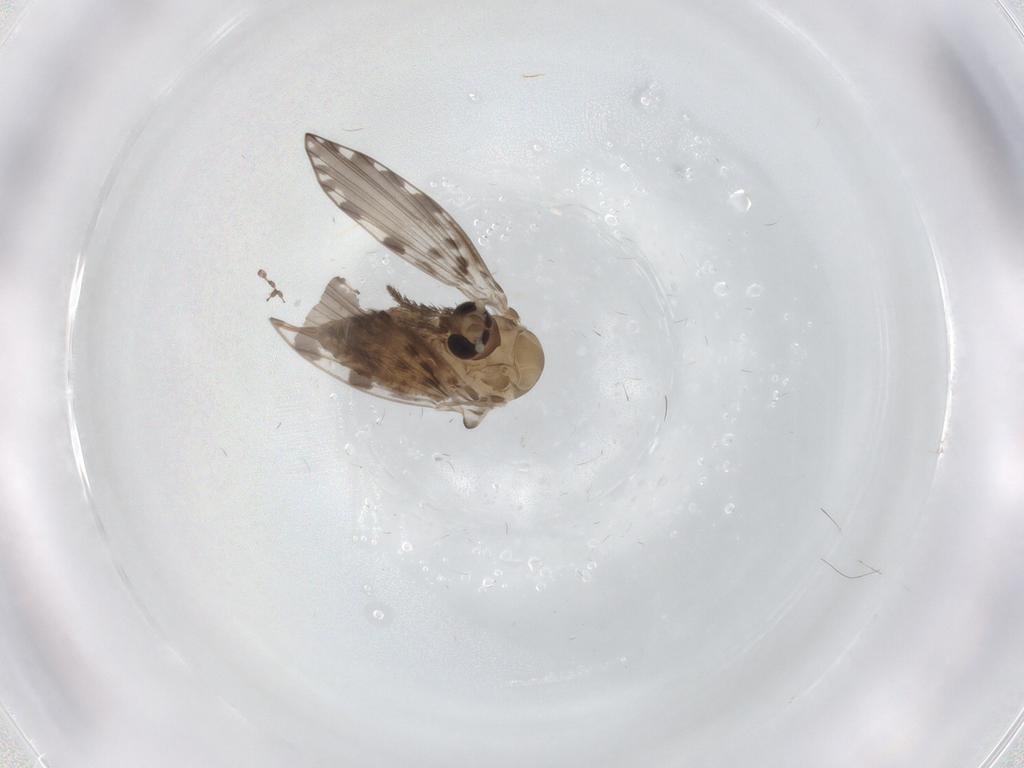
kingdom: Animalia
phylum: Arthropoda
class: Insecta
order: Diptera
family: Psychodidae
